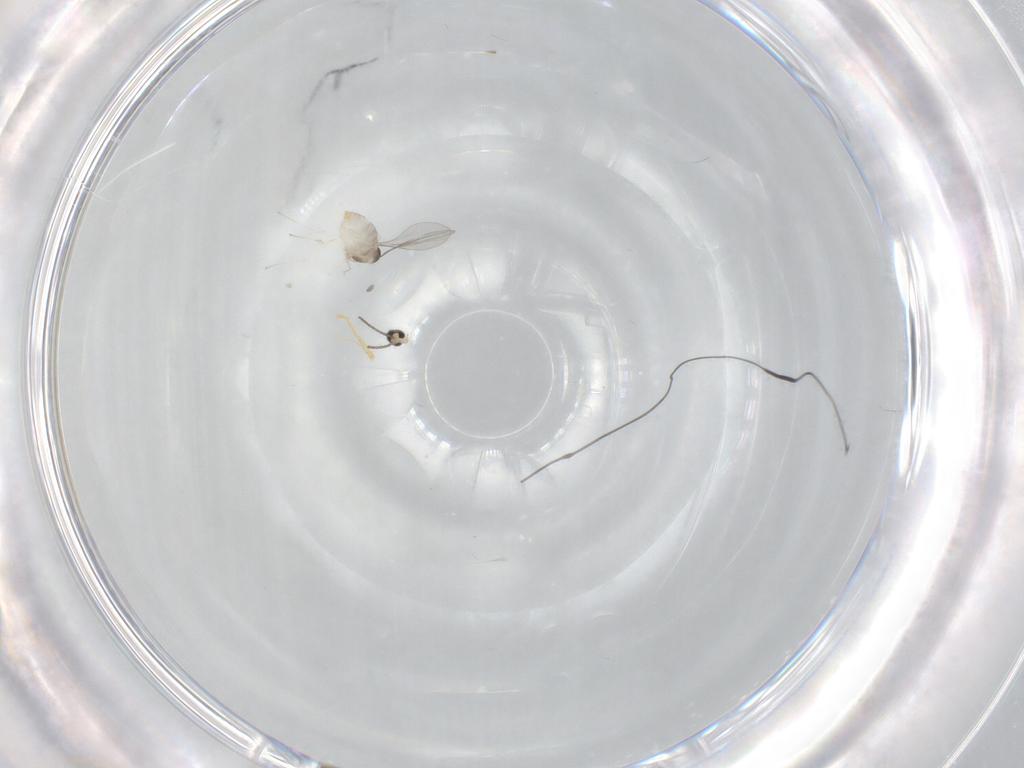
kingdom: Animalia
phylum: Arthropoda
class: Insecta
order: Diptera
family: Cecidomyiidae
